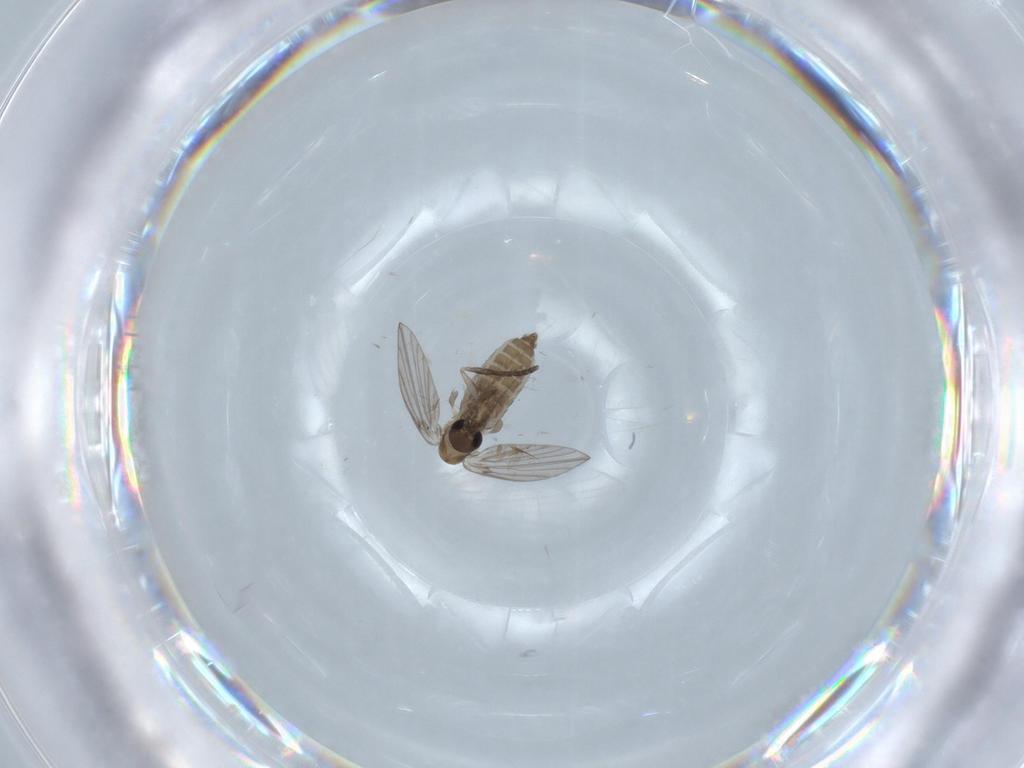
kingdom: Animalia
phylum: Arthropoda
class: Insecta
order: Diptera
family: Psychodidae
